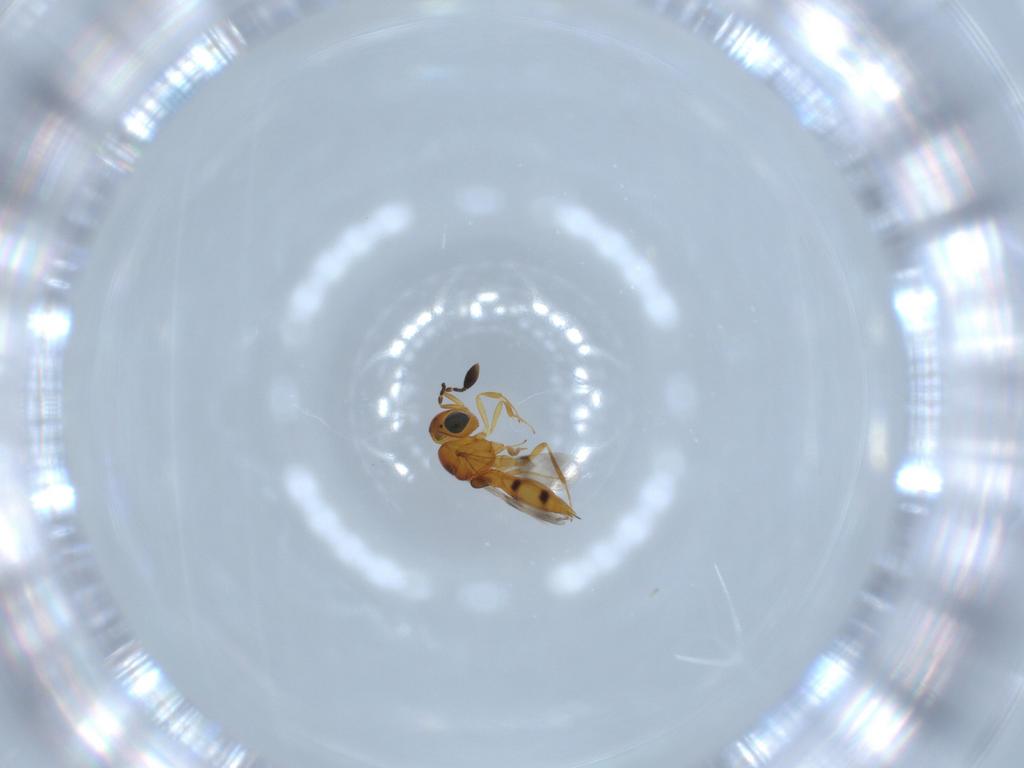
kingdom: Animalia
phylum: Arthropoda
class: Insecta
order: Hymenoptera
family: Scelionidae
